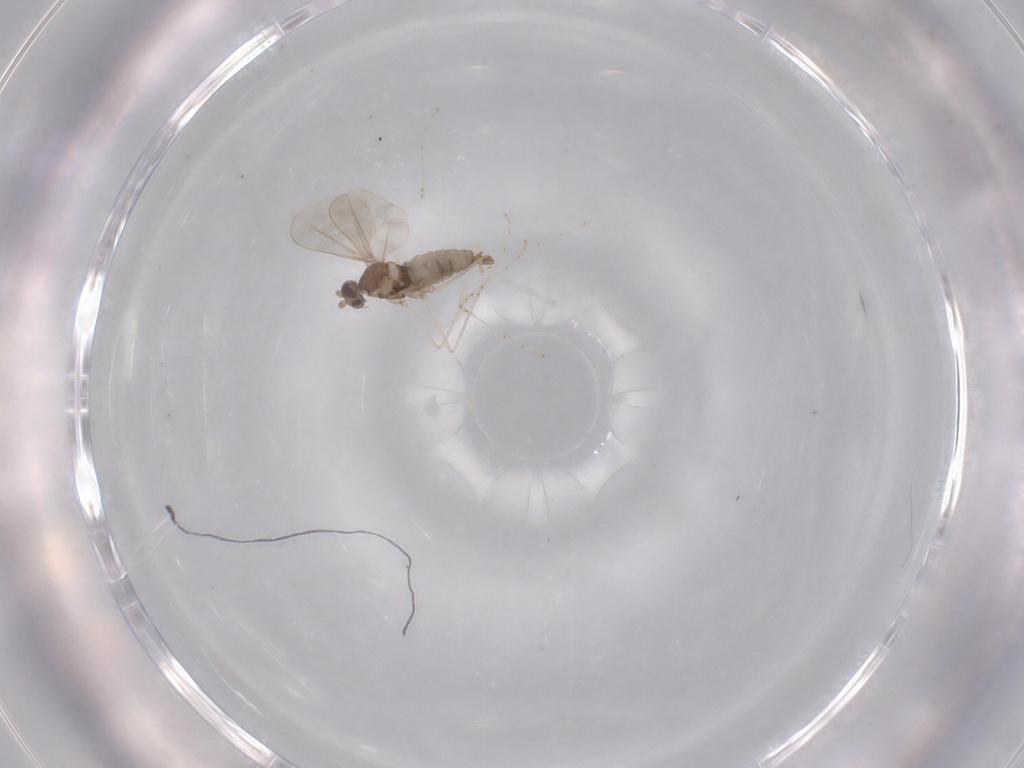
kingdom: Animalia
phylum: Arthropoda
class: Insecta
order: Diptera
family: Cecidomyiidae
